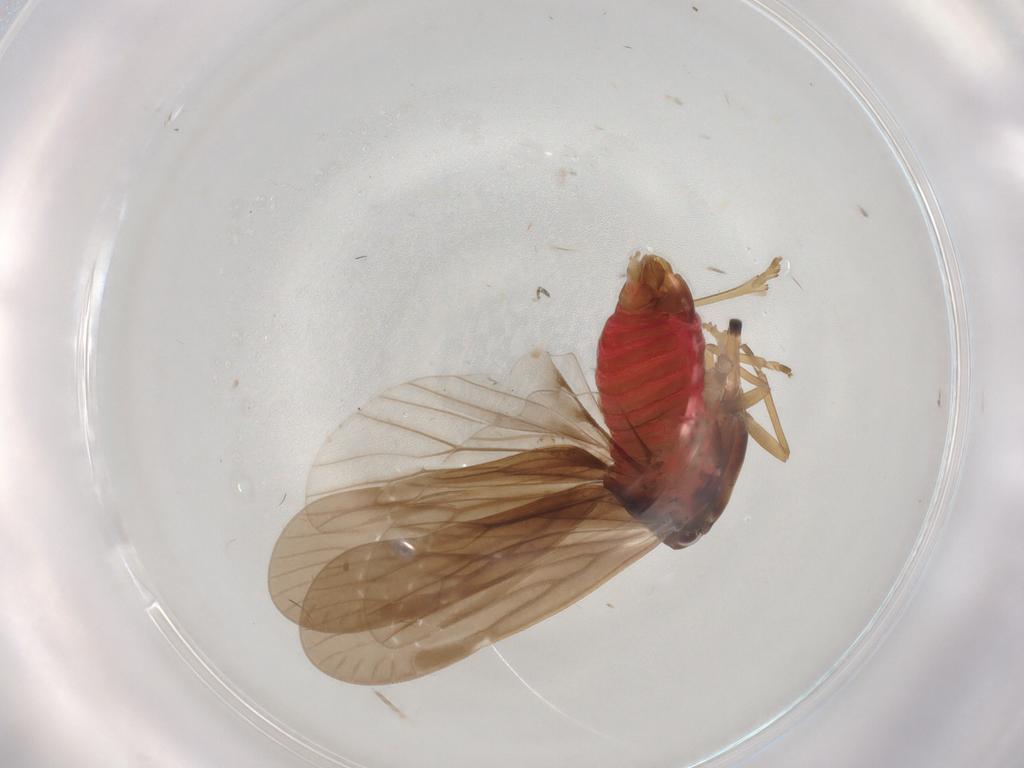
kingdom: Animalia
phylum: Arthropoda
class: Insecta
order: Hemiptera
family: Derbidae
